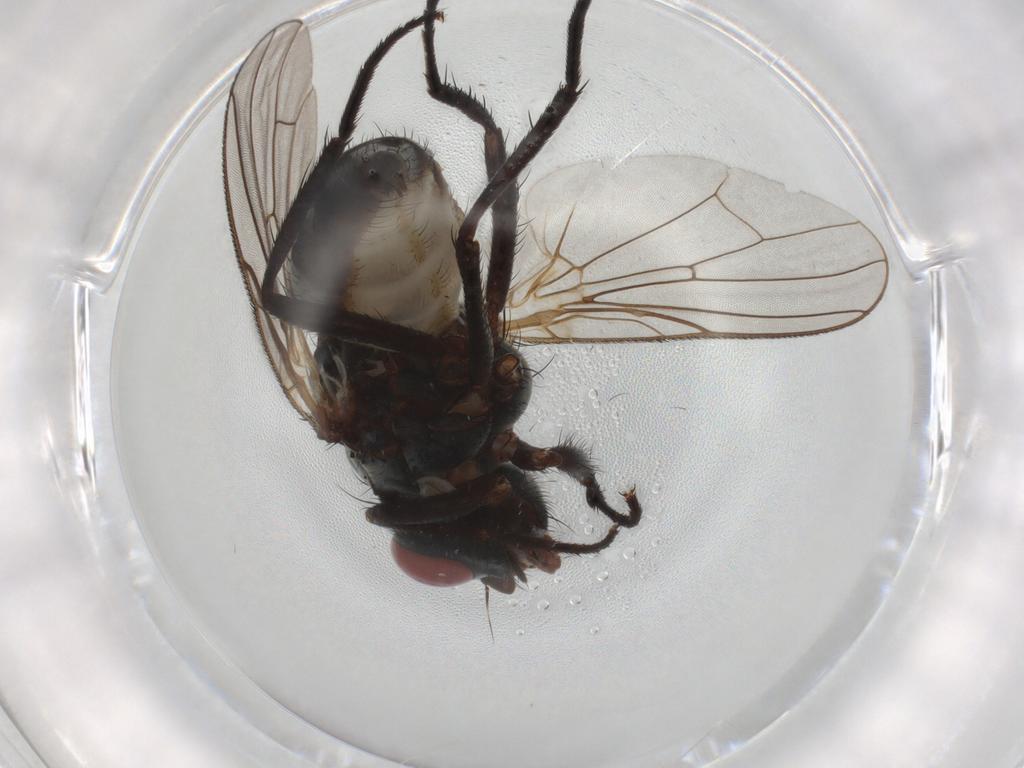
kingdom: Animalia
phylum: Arthropoda
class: Insecta
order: Diptera
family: Anthomyiidae
